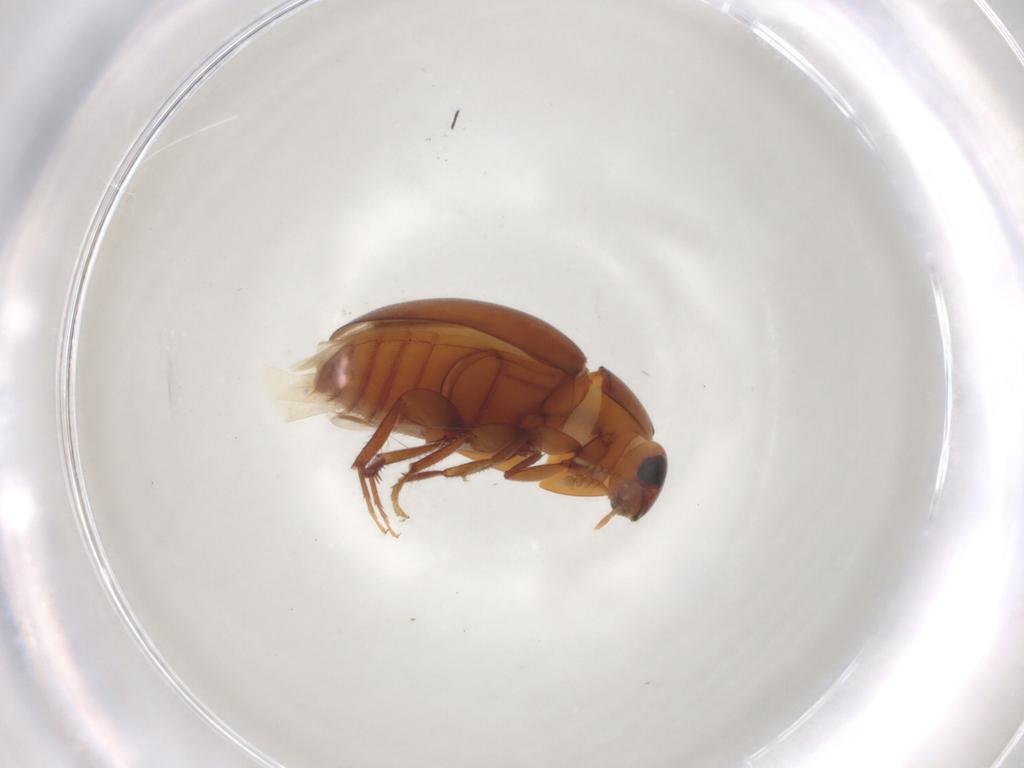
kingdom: Animalia
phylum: Arthropoda
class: Insecta
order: Coleoptera
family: Phalacridae
